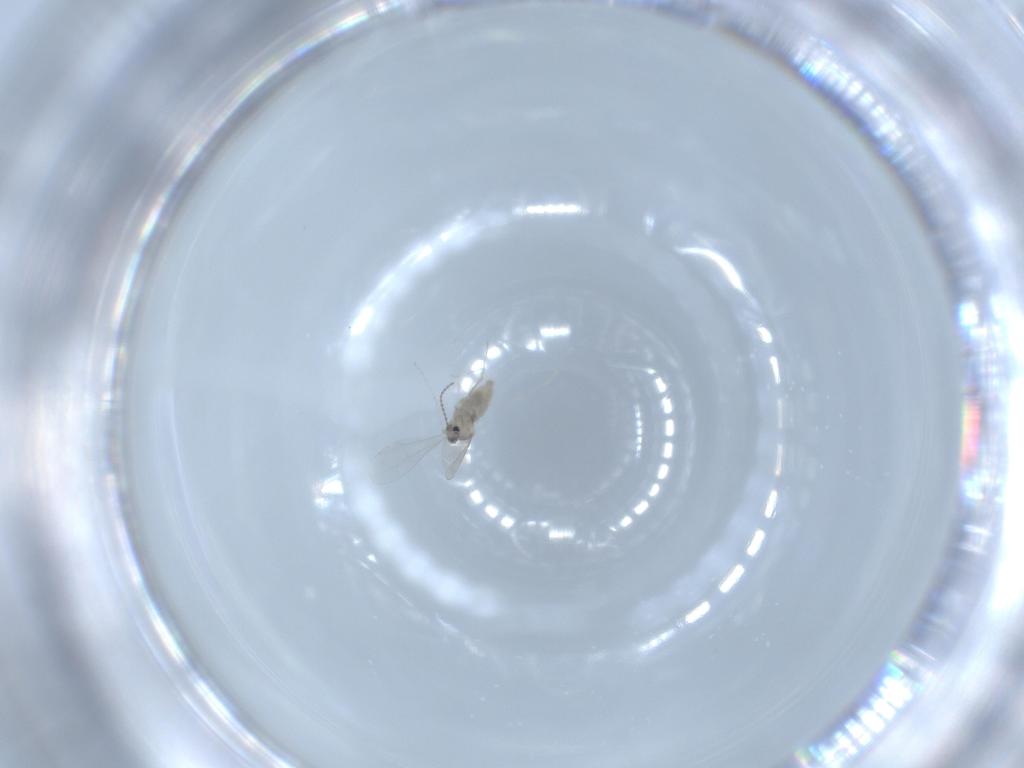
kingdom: Animalia
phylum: Arthropoda
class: Insecta
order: Diptera
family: Cecidomyiidae
